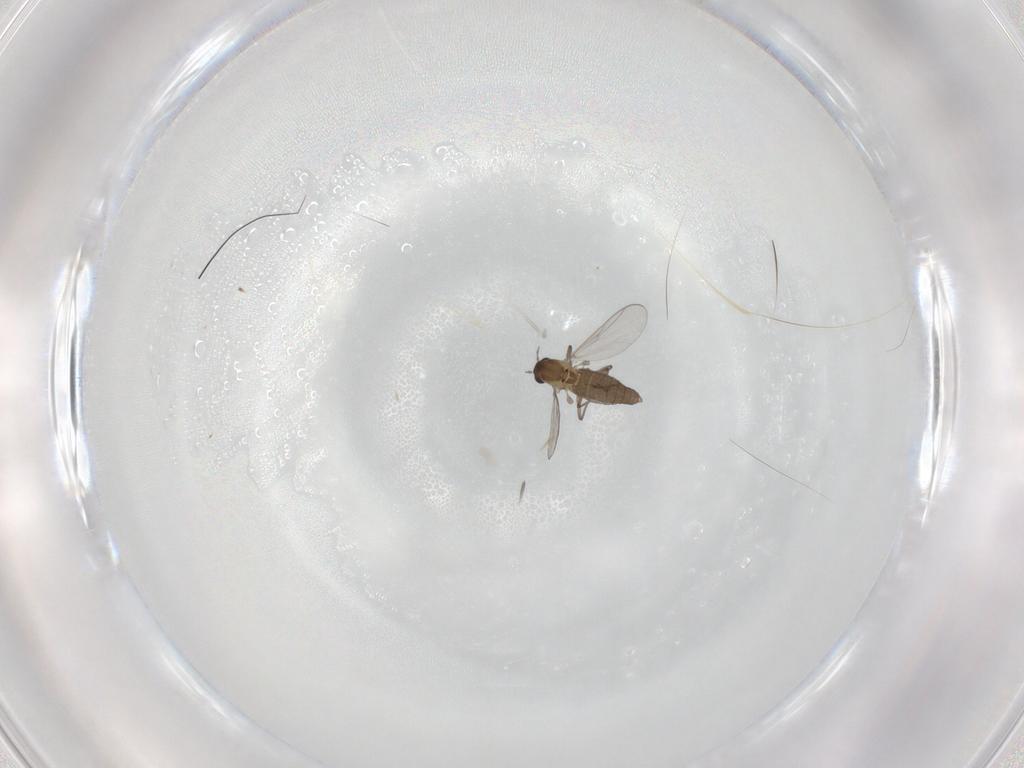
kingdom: Animalia
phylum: Arthropoda
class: Insecta
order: Diptera
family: Chironomidae
